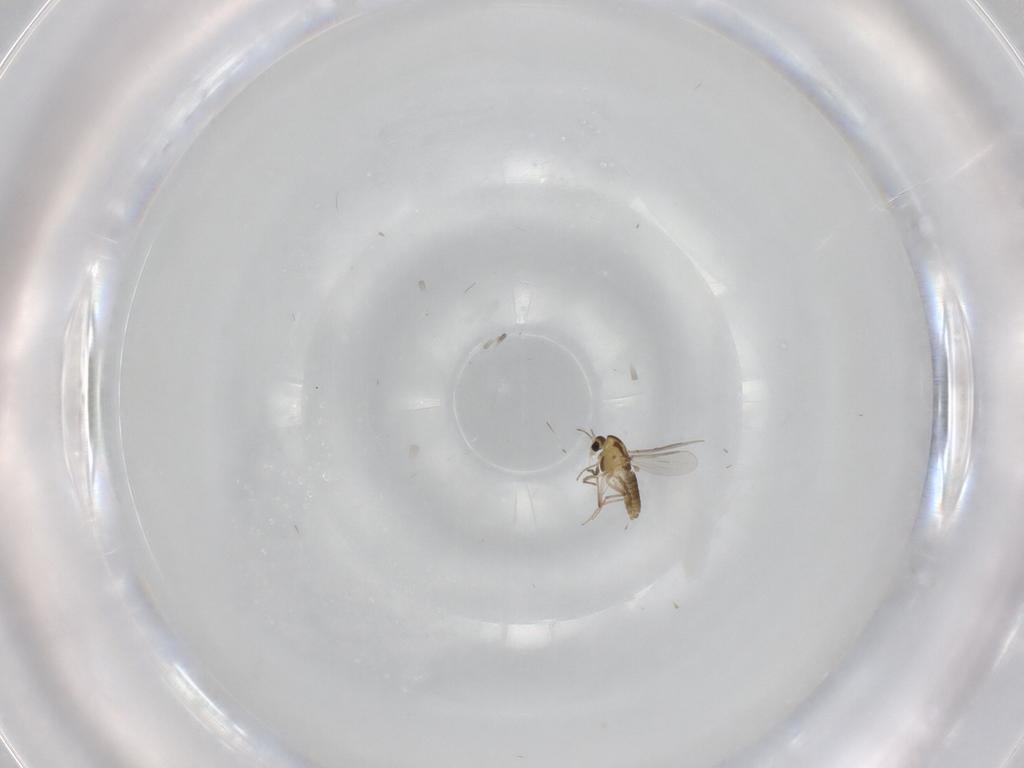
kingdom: Animalia
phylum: Arthropoda
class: Insecta
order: Diptera
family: Chironomidae
